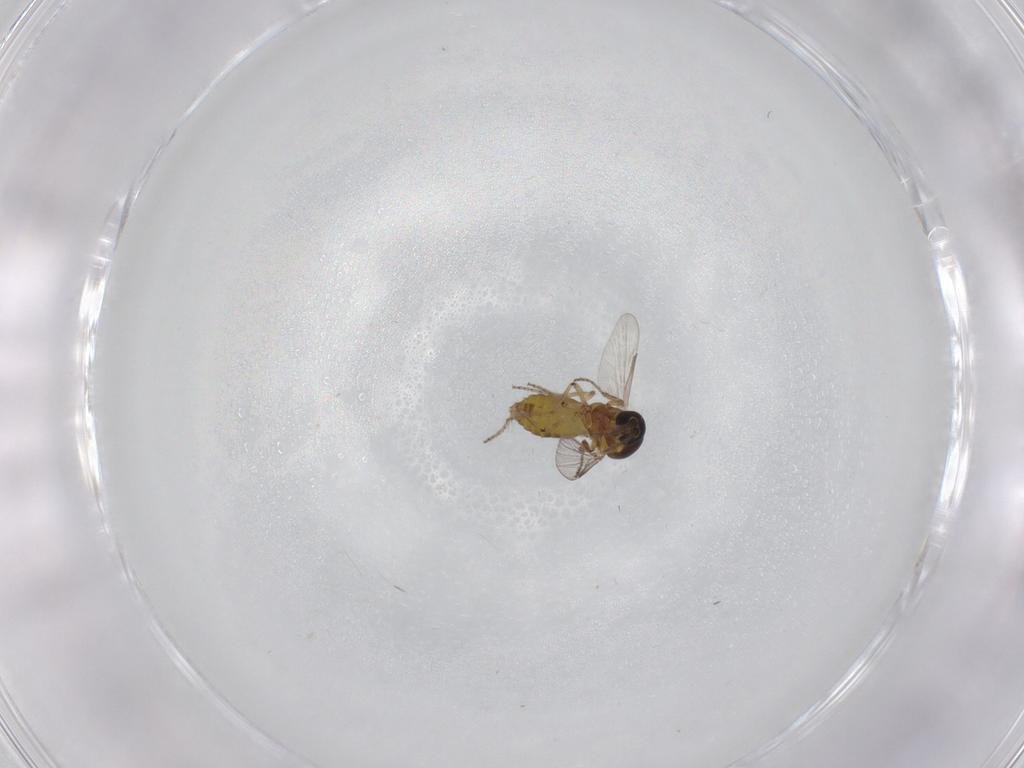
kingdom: Animalia
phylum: Arthropoda
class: Insecta
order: Diptera
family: Ceratopogonidae
